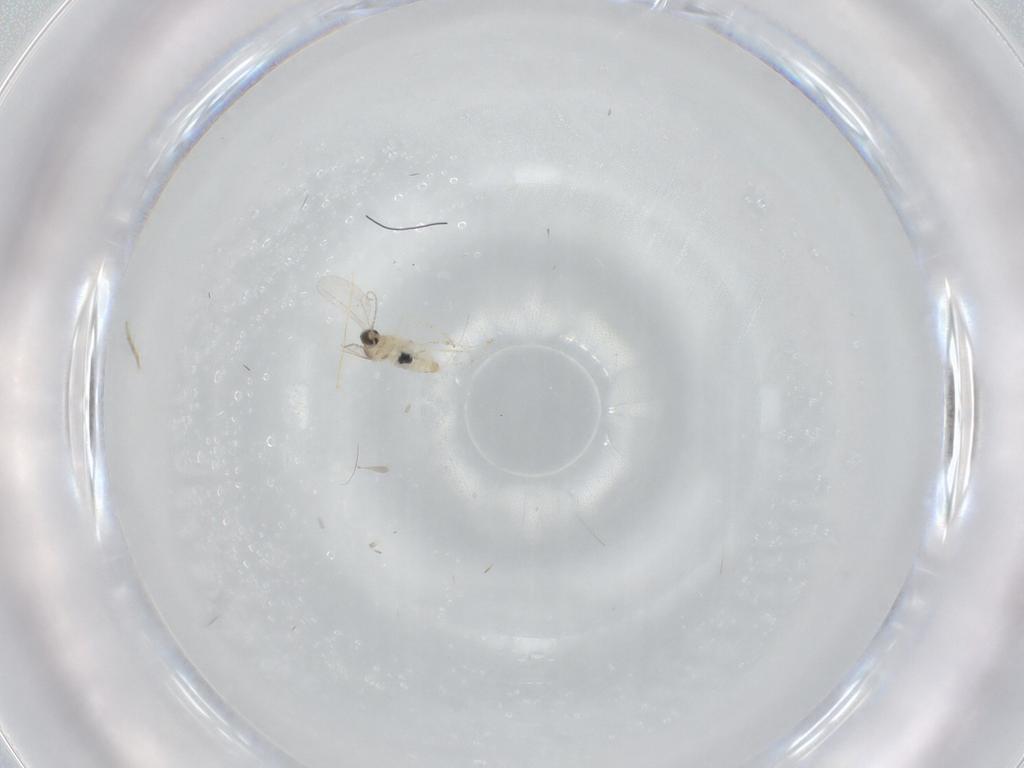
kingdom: Animalia
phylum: Arthropoda
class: Insecta
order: Diptera
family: Cecidomyiidae
